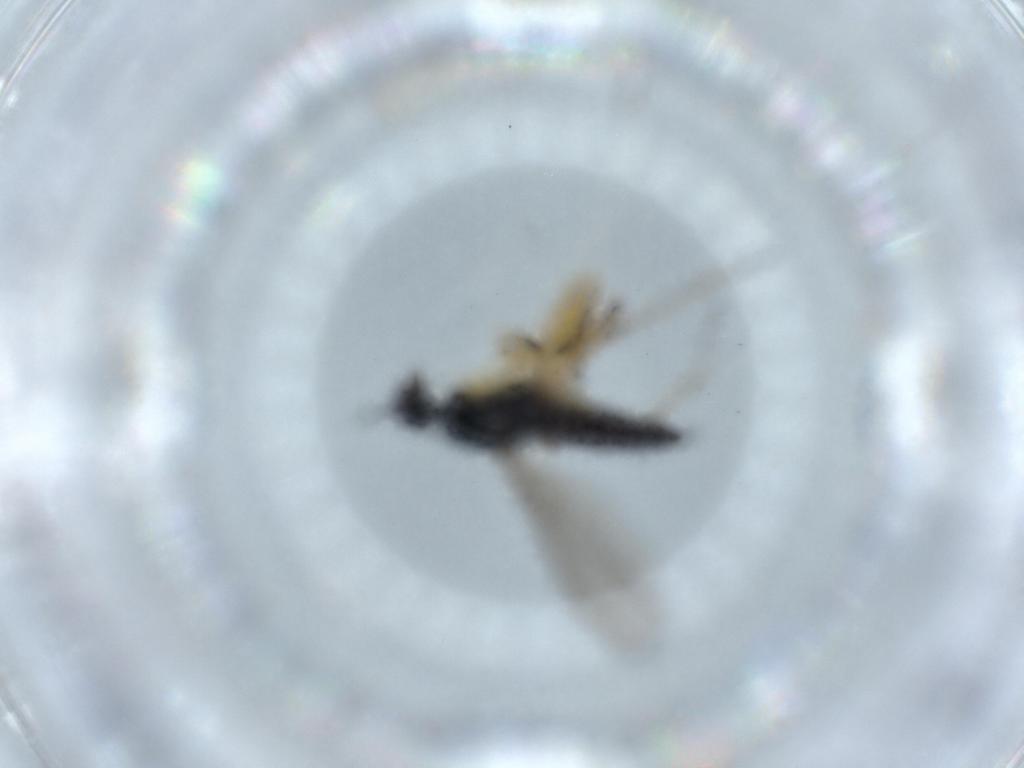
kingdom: Animalia
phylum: Arthropoda
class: Insecta
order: Diptera
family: Empididae
